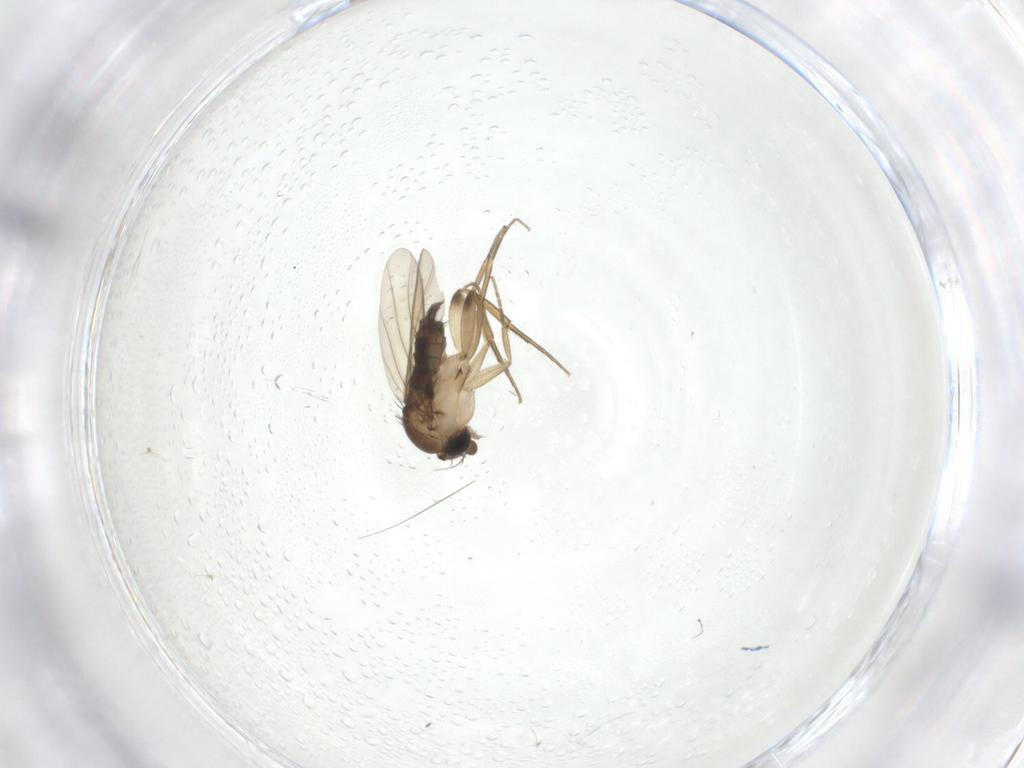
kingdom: Animalia
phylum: Arthropoda
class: Insecta
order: Diptera
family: Phoridae
